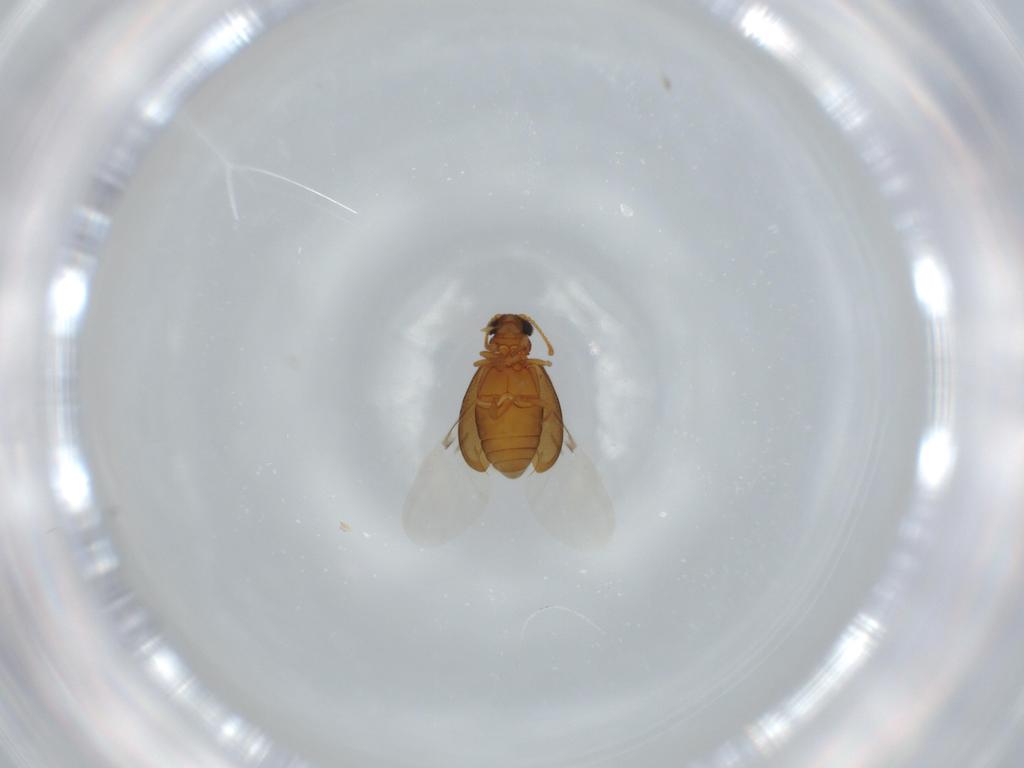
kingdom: Animalia
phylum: Arthropoda
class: Insecta
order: Coleoptera
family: Aderidae
